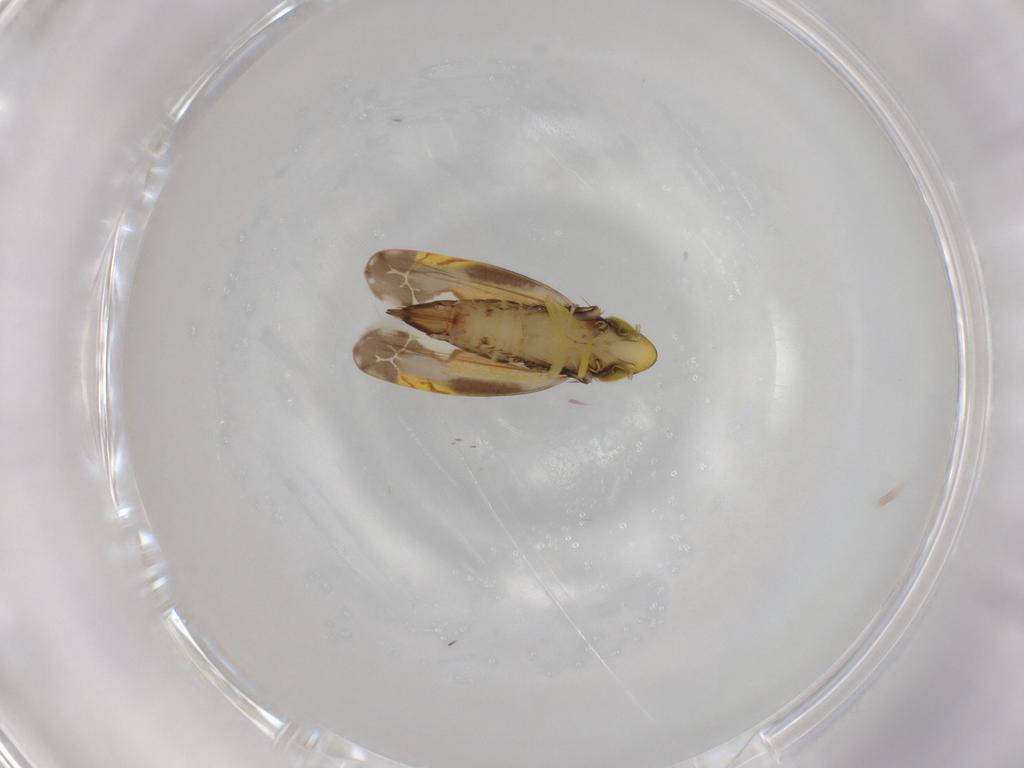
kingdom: Animalia
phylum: Arthropoda
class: Insecta
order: Hemiptera
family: Cicadellidae
